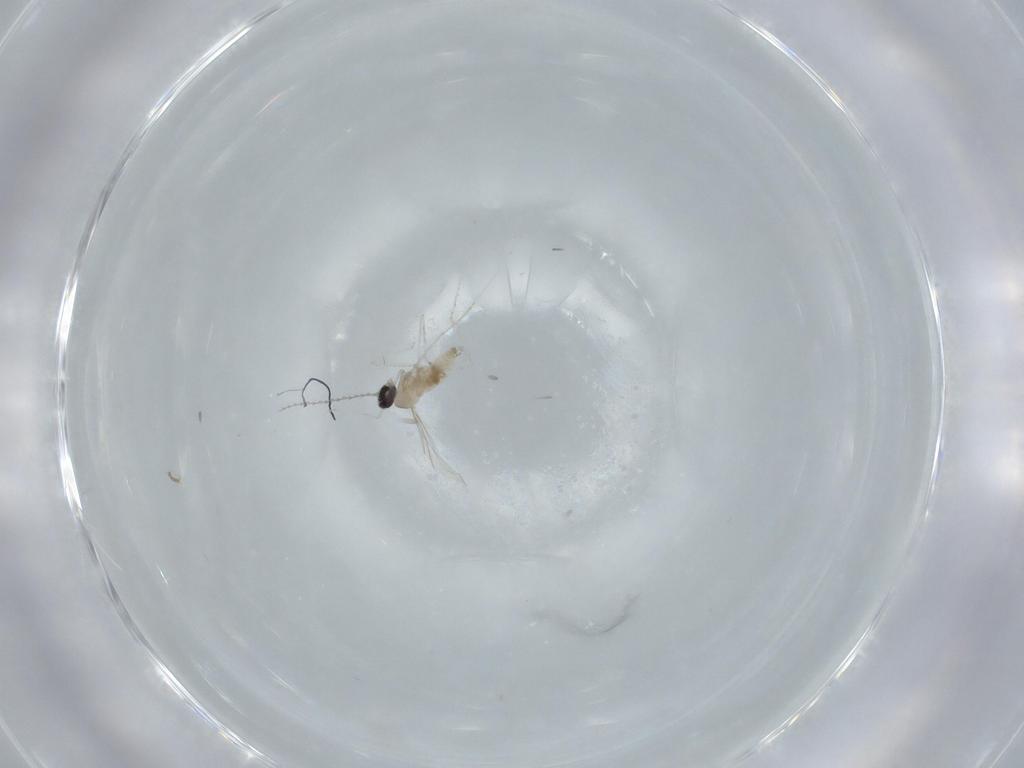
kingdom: Animalia
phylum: Arthropoda
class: Insecta
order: Diptera
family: Cecidomyiidae
